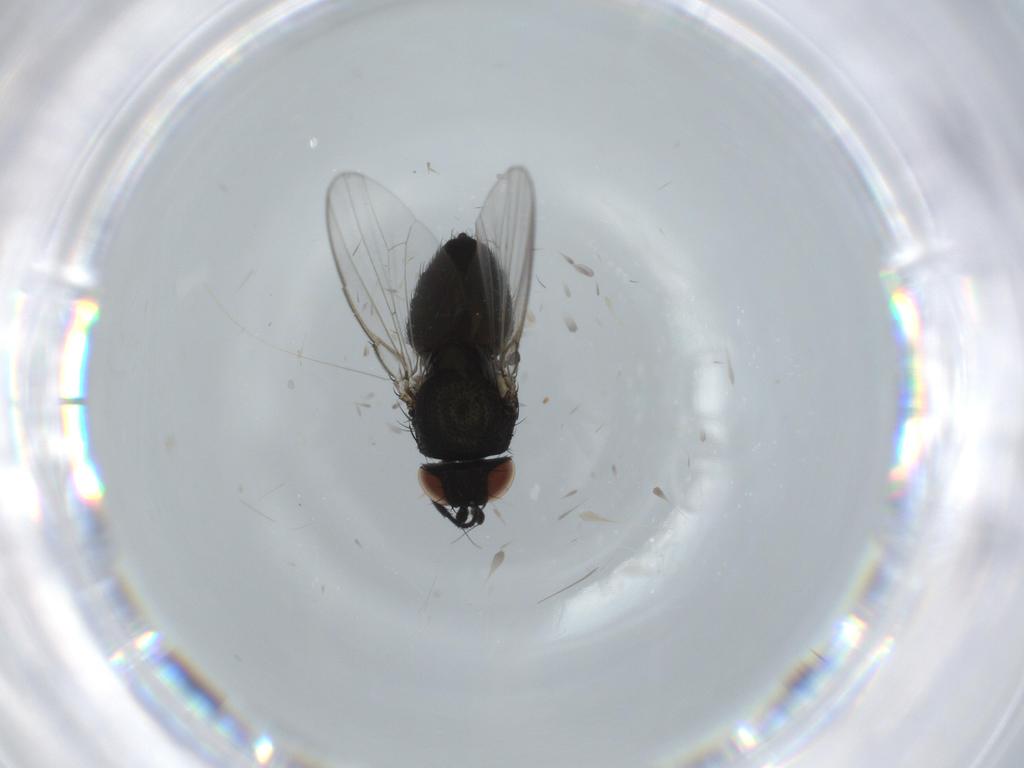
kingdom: Animalia
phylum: Arthropoda
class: Insecta
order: Diptera
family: Milichiidae
